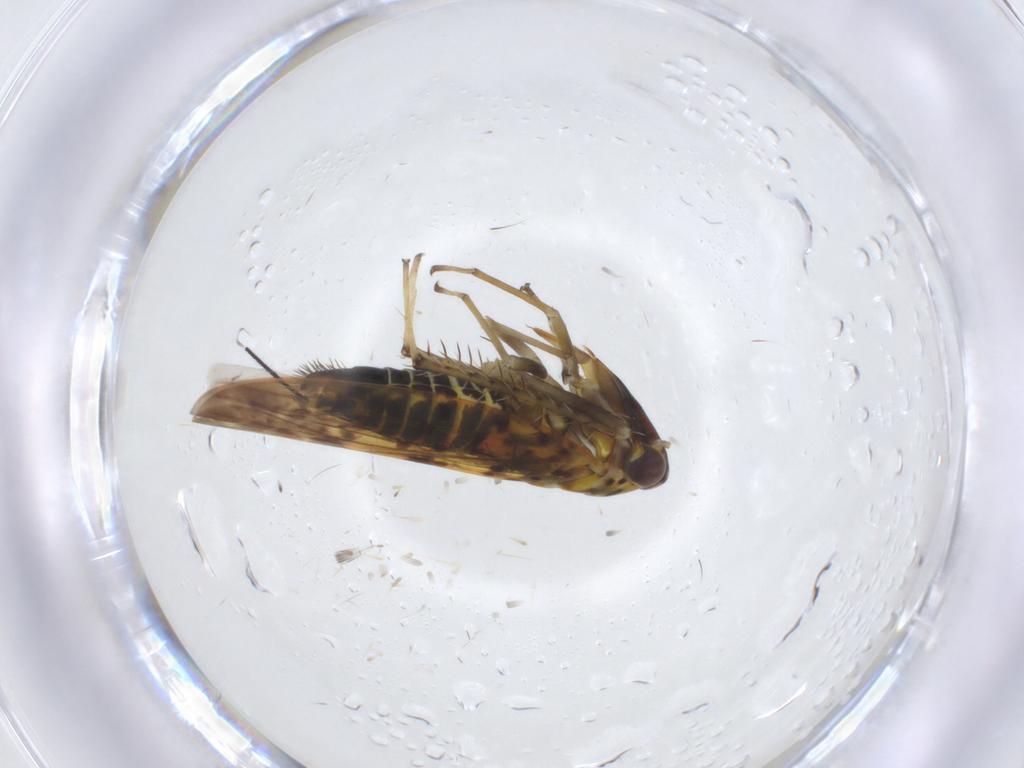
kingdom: Animalia
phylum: Arthropoda
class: Insecta
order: Hemiptera
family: Cicadellidae
